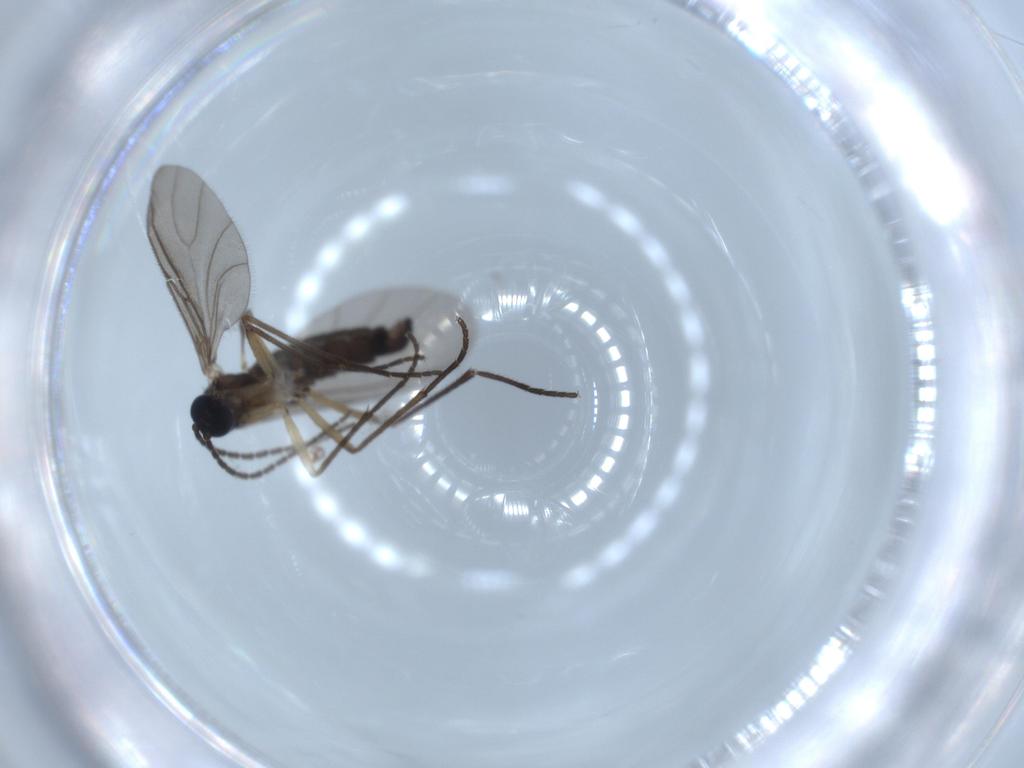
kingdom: Animalia
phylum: Arthropoda
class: Insecta
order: Diptera
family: Chironomidae
